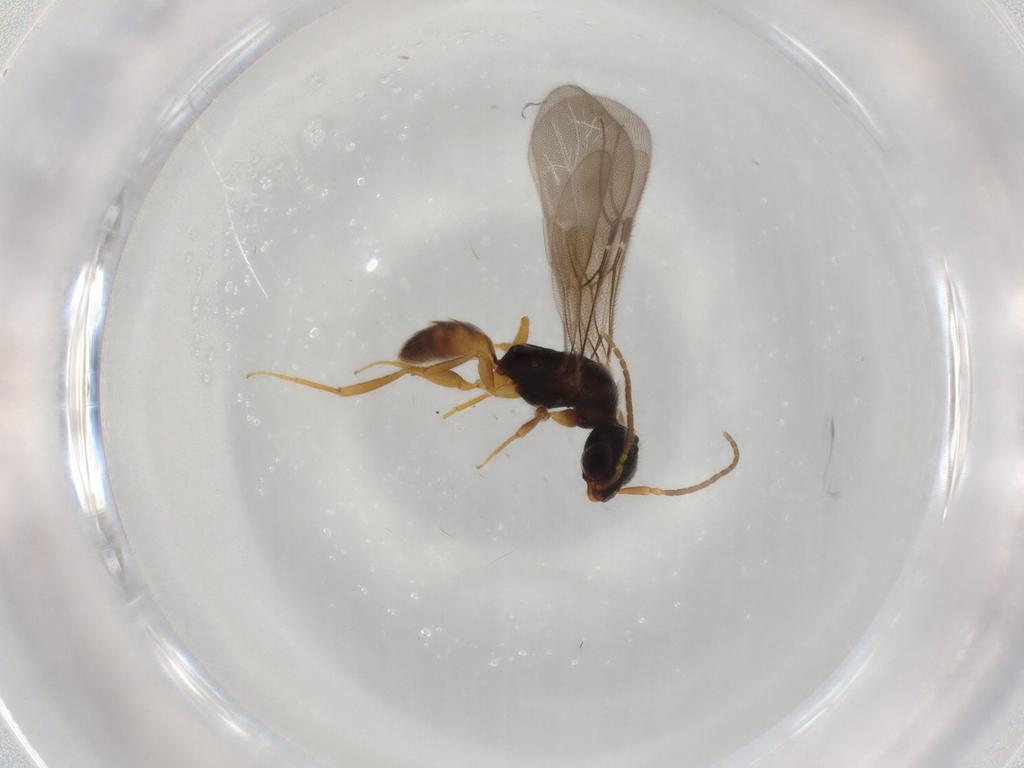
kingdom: Animalia
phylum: Arthropoda
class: Insecta
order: Hymenoptera
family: Bethylidae
